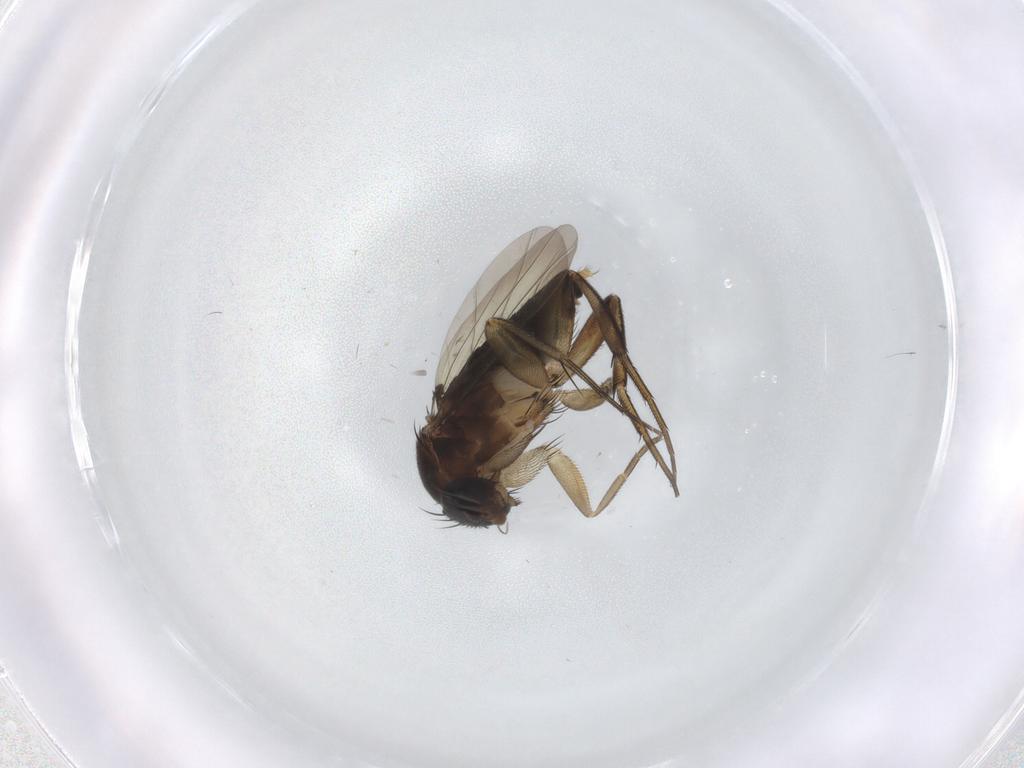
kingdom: Animalia
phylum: Arthropoda
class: Insecta
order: Diptera
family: Phoridae
